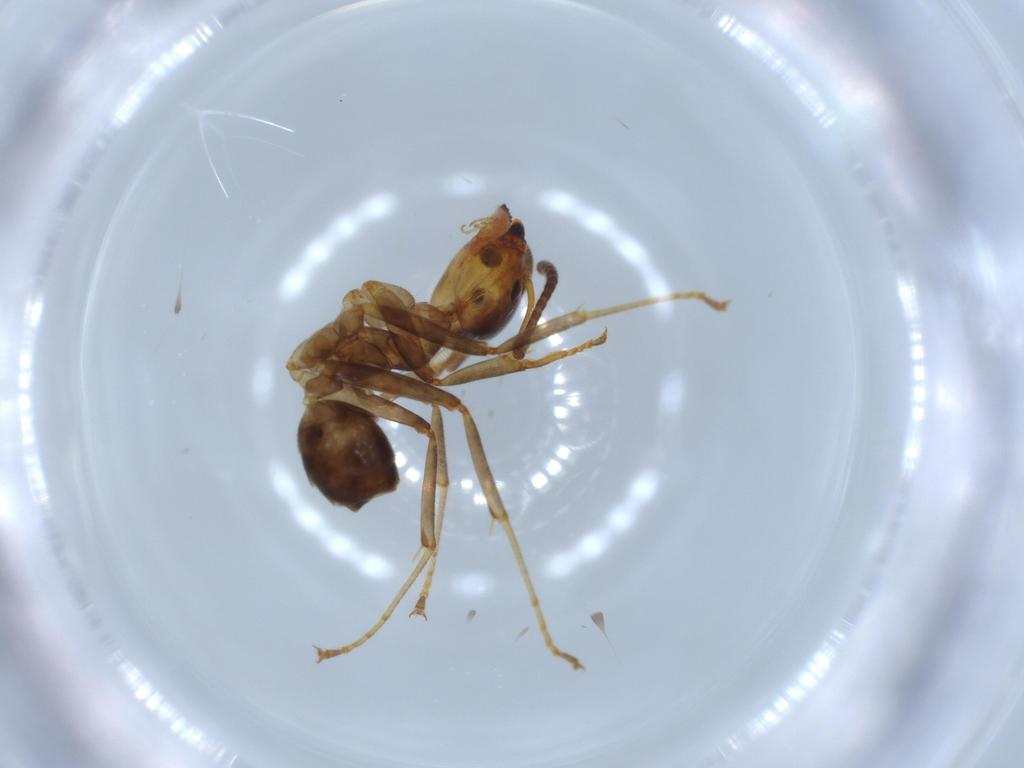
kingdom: Animalia
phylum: Arthropoda
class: Insecta
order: Hymenoptera
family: Formicidae
